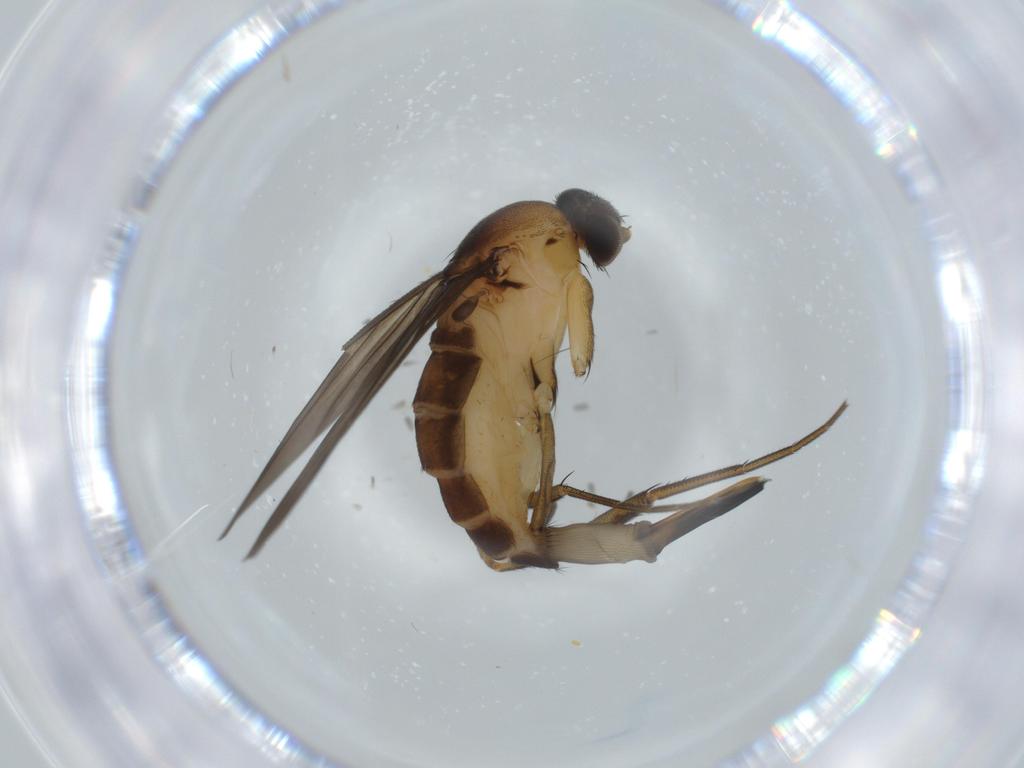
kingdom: Animalia
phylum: Arthropoda
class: Insecta
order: Diptera
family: Phoridae
